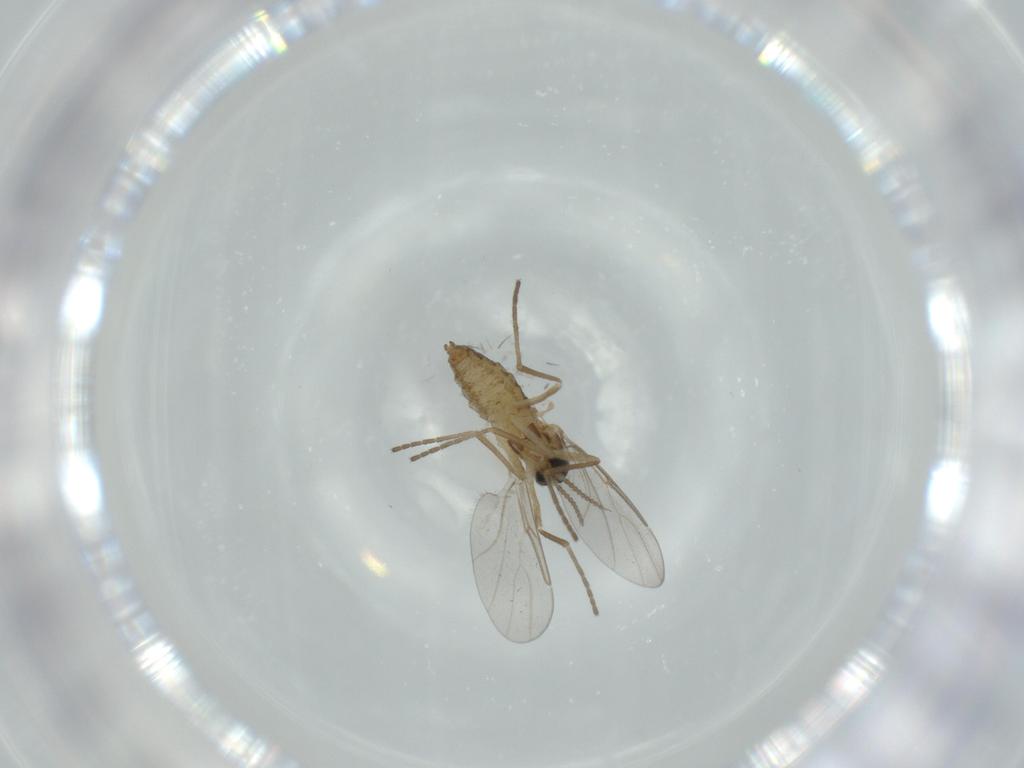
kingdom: Animalia
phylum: Arthropoda
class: Insecta
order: Diptera
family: Cecidomyiidae
